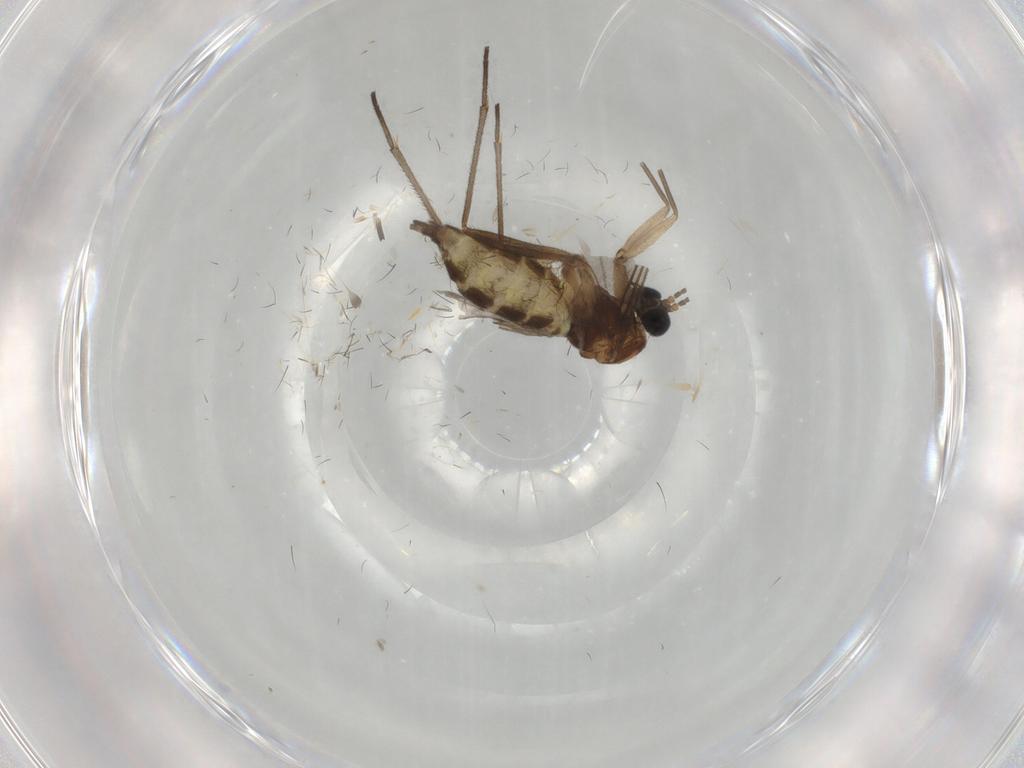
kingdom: Animalia
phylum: Arthropoda
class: Insecta
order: Diptera
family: Sciaridae
